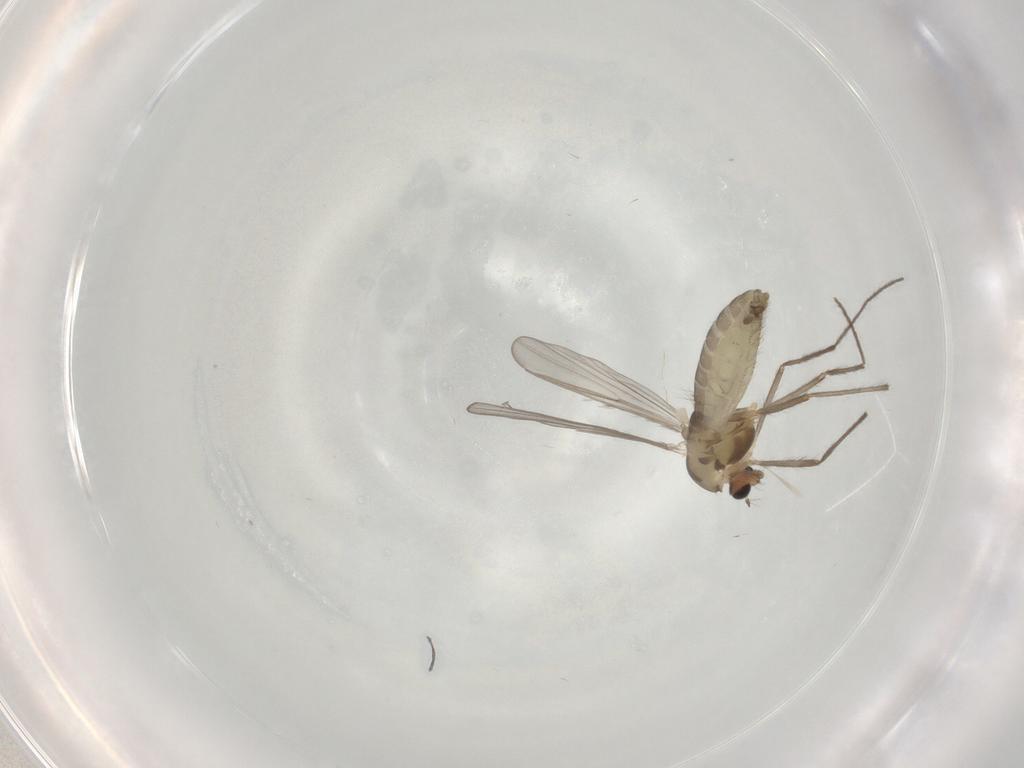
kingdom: Animalia
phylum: Arthropoda
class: Insecta
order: Diptera
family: Chironomidae
